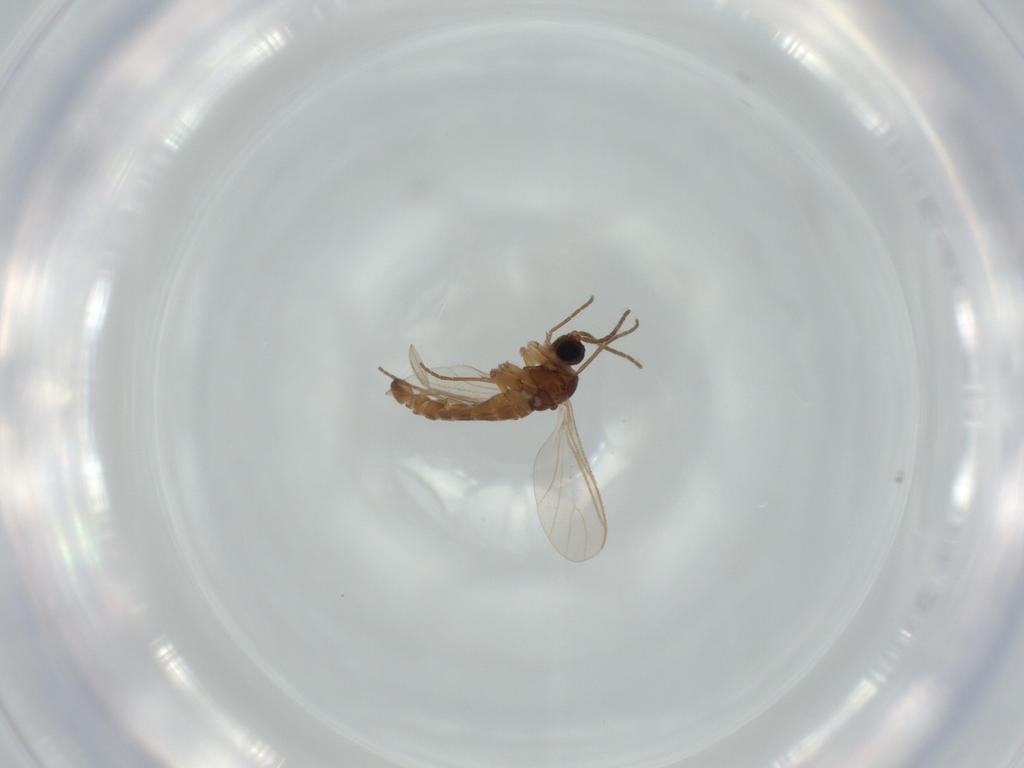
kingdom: Animalia
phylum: Arthropoda
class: Insecta
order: Diptera
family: Sciaridae
